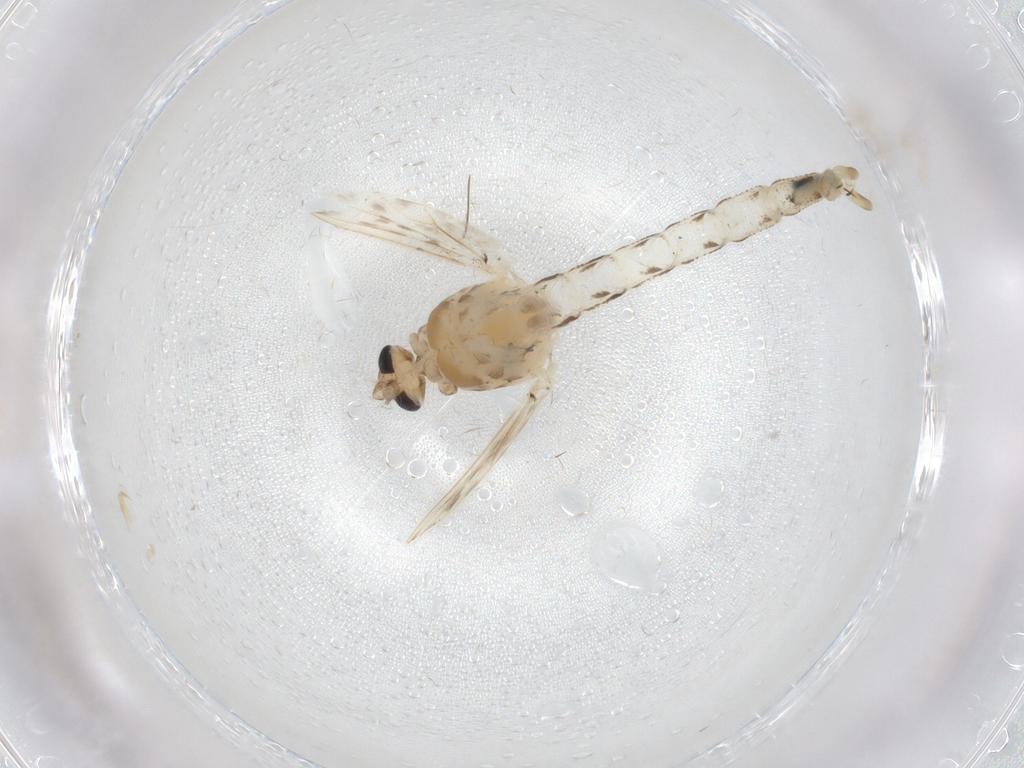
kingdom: Animalia
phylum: Arthropoda
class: Insecta
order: Diptera
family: Chaoboridae
